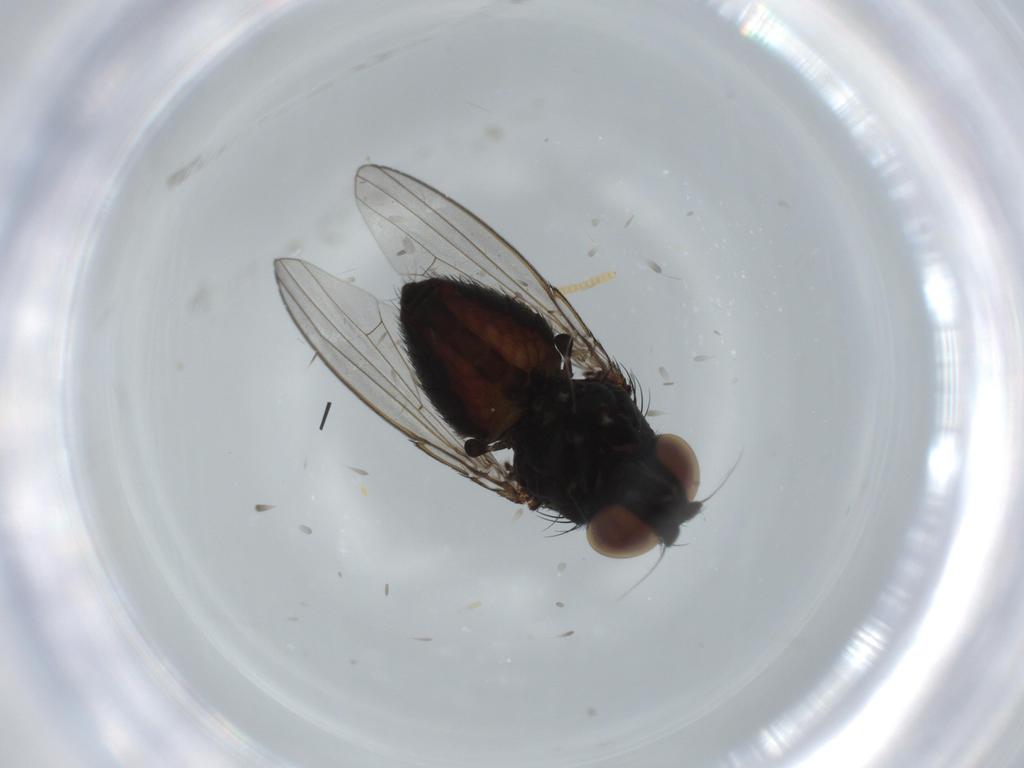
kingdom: Animalia
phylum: Arthropoda
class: Insecta
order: Diptera
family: Milichiidae
